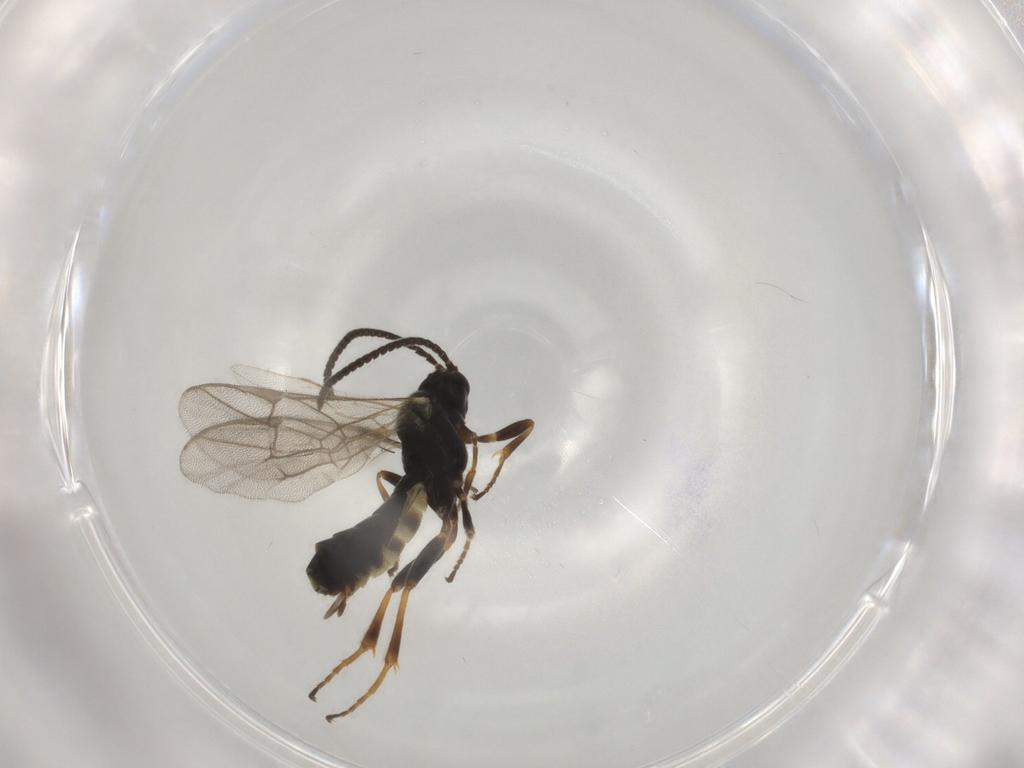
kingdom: Animalia
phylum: Arthropoda
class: Insecta
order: Hymenoptera
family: Ichneumonidae
